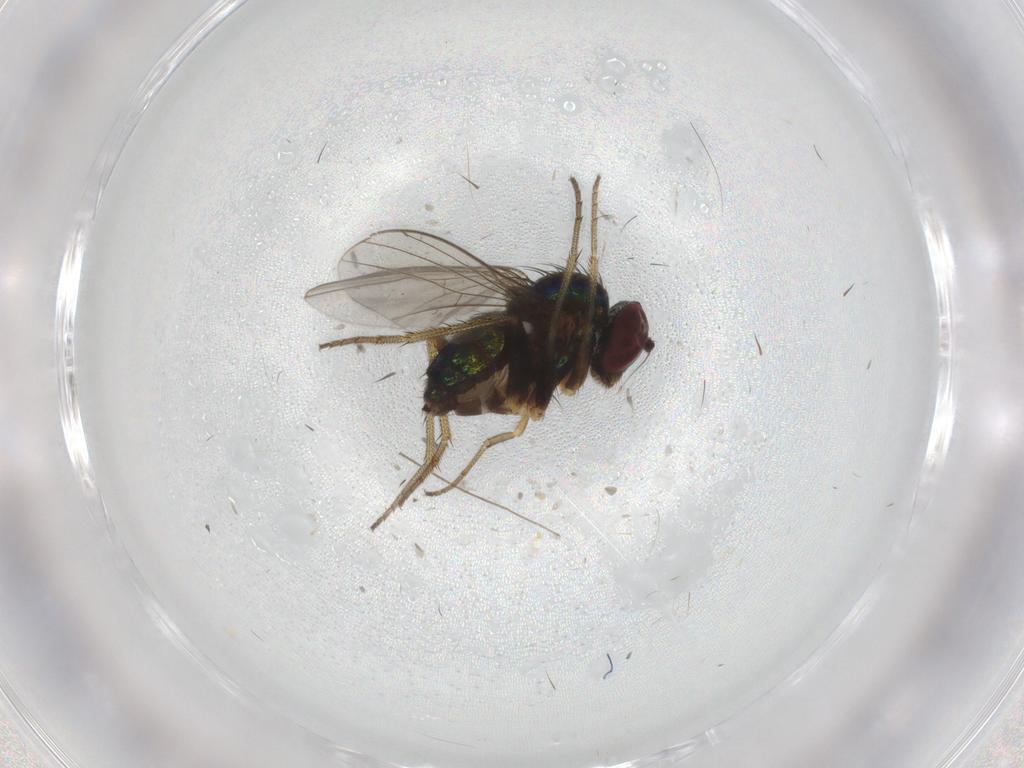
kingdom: Animalia
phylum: Arthropoda
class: Insecta
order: Diptera
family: Chironomidae
